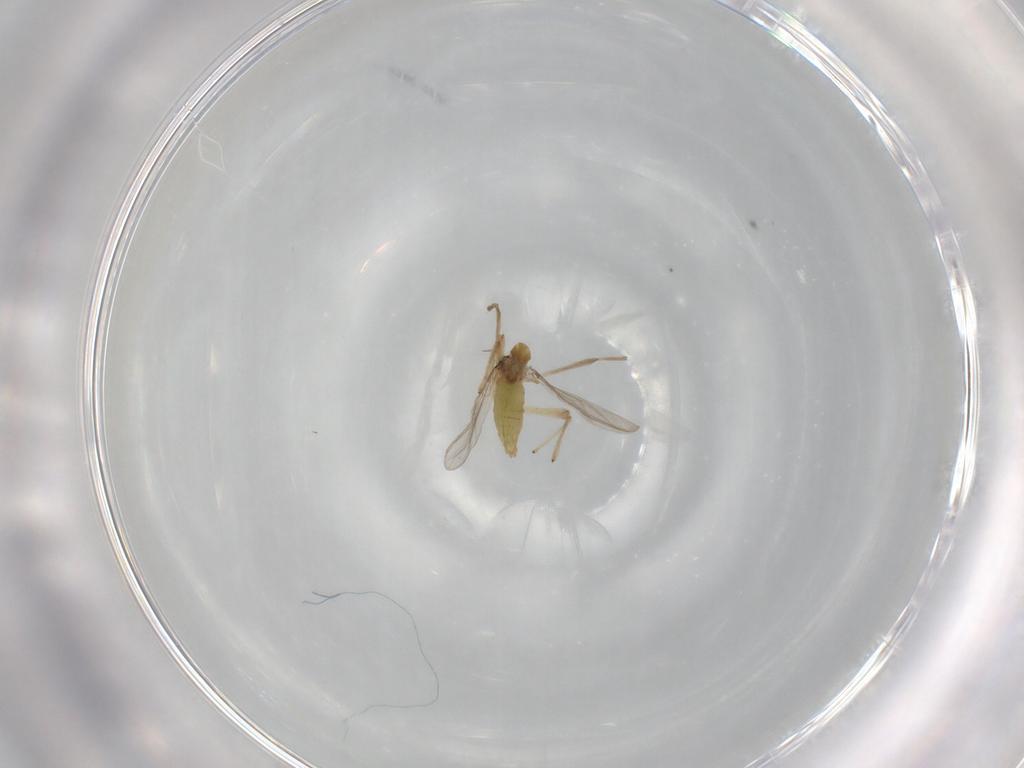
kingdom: Animalia
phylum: Arthropoda
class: Insecta
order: Diptera
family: Chironomidae
